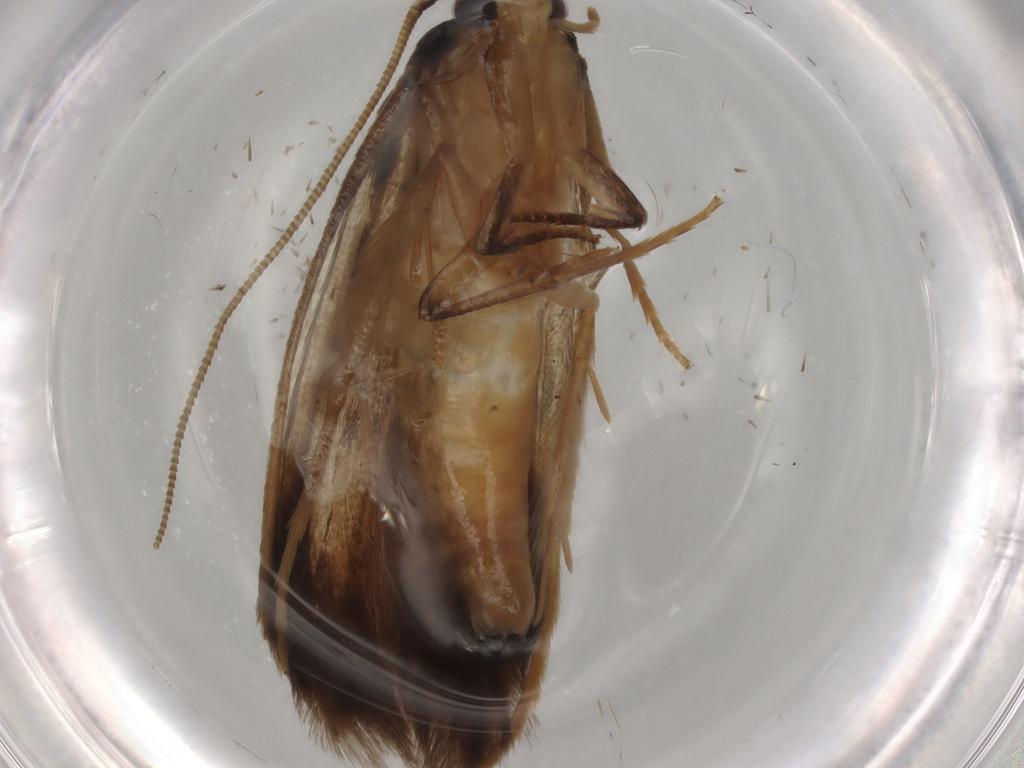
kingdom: Animalia
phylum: Arthropoda
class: Insecta
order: Lepidoptera
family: Tineidae
